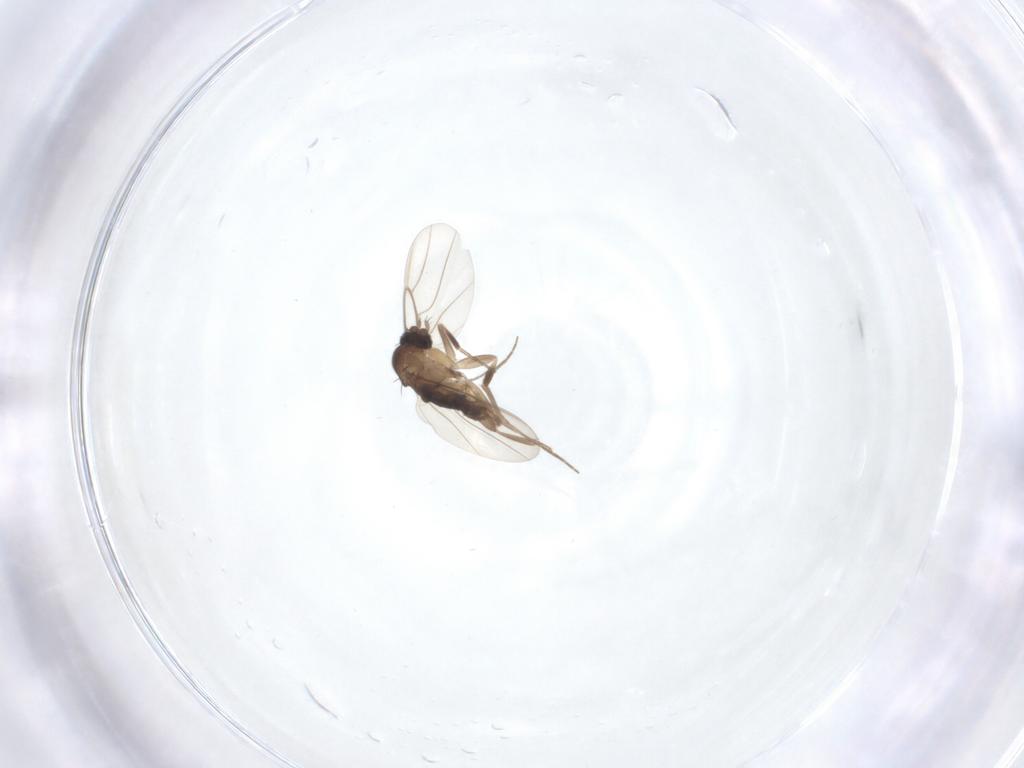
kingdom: Animalia
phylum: Arthropoda
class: Insecta
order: Diptera
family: Phoridae
